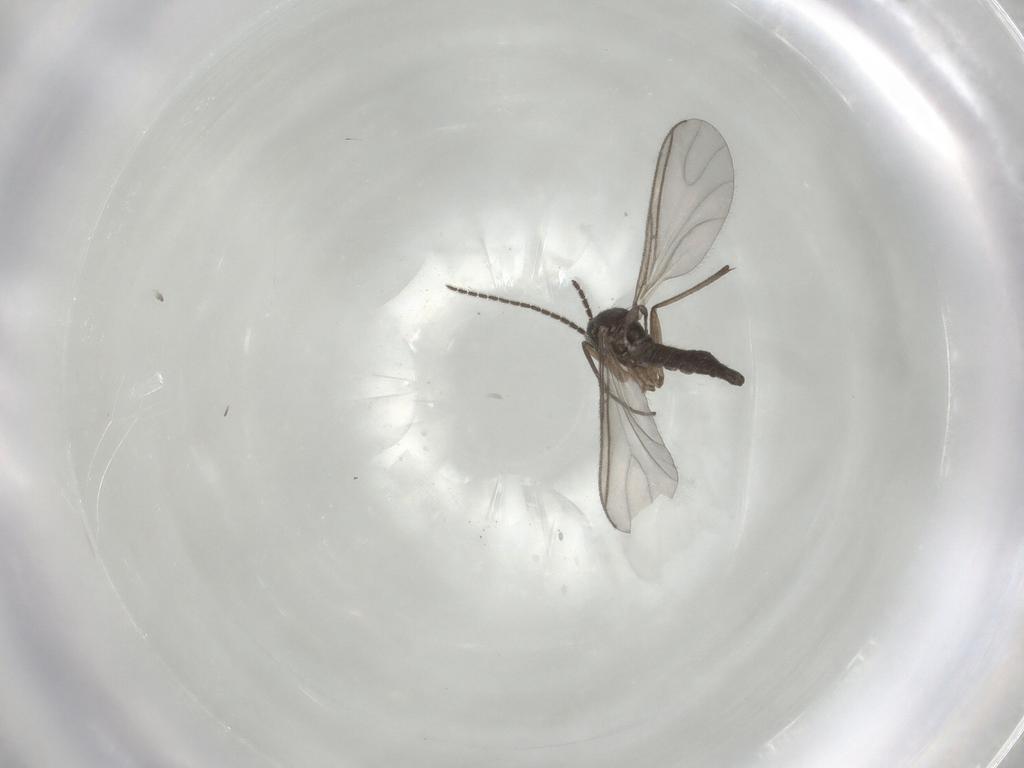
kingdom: Animalia
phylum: Arthropoda
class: Insecta
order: Diptera
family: Sciaridae
